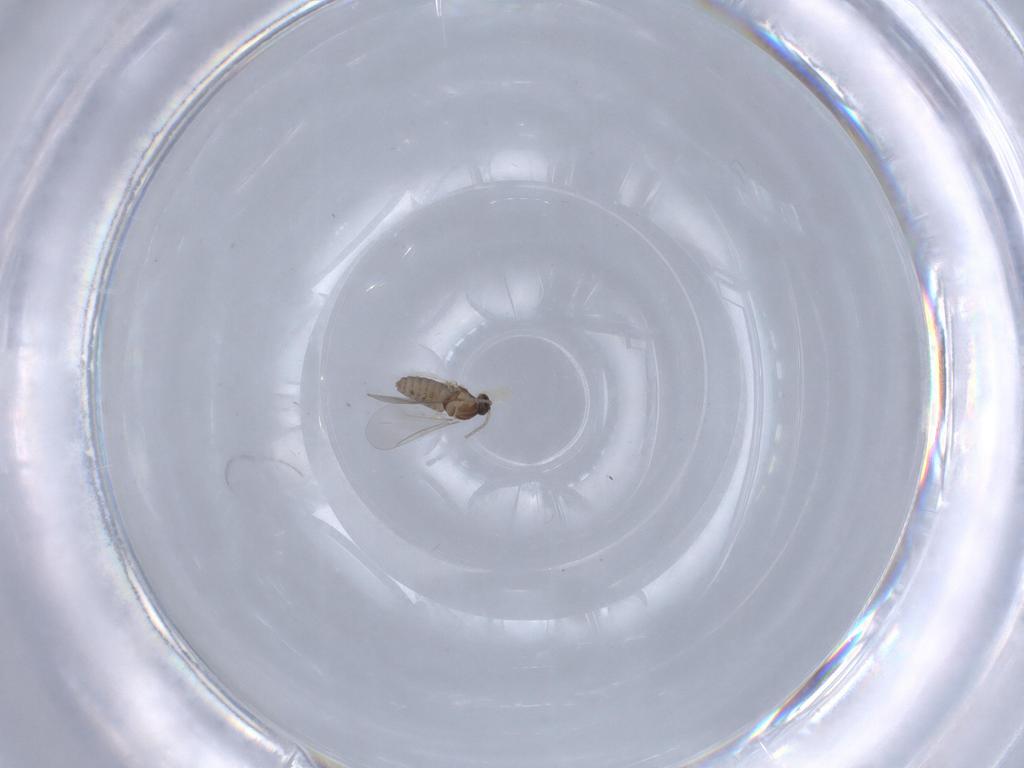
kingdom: Animalia
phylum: Arthropoda
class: Insecta
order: Diptera
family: Cecidomyiidae
